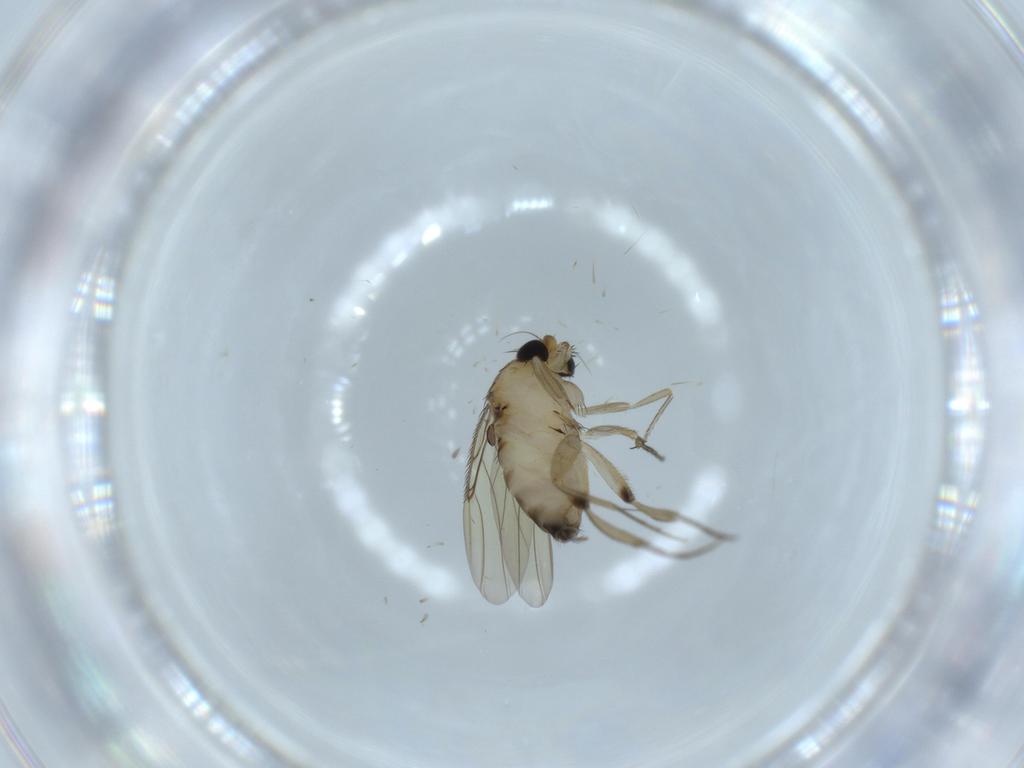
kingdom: Animalia
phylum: Arthropoda
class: Insecta
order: Diptera
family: Phoridae
